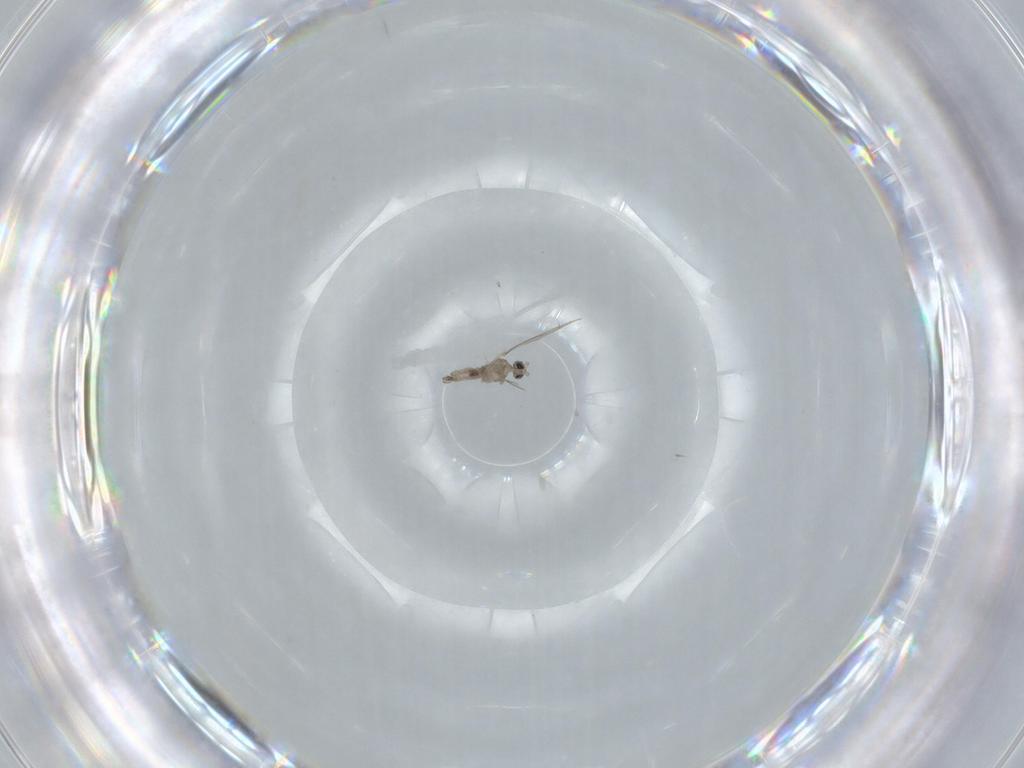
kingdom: Animalia
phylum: Arthropoda
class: Insecta
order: Diptera
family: Cecidomyiidae
